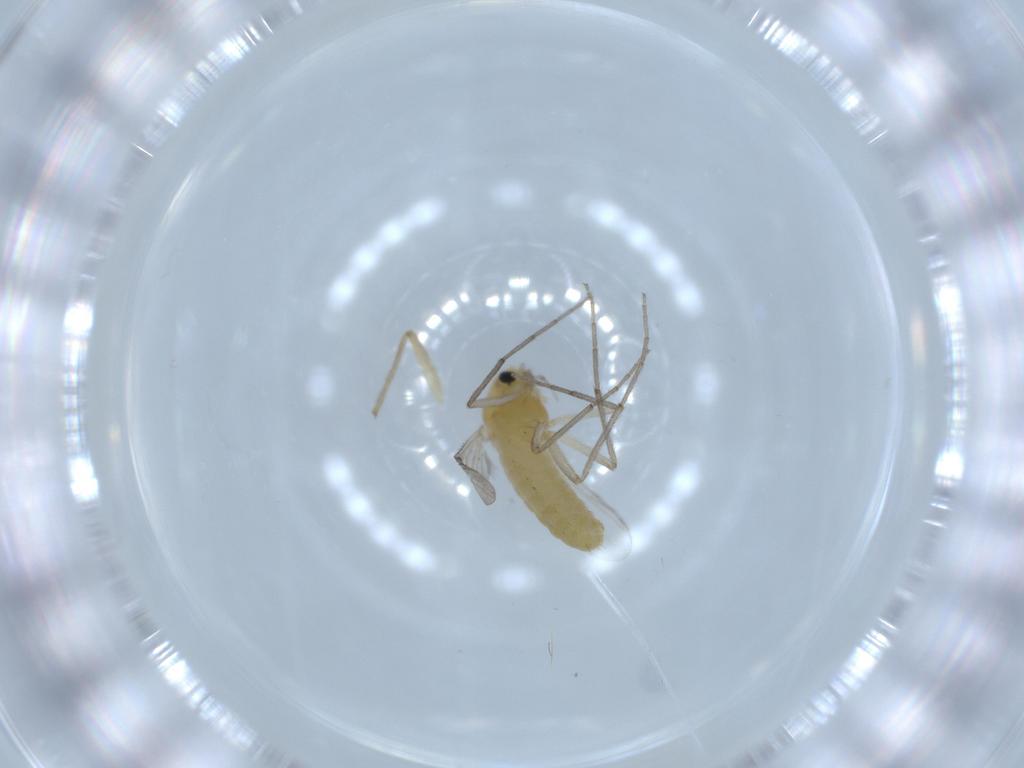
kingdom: Animalia
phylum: Arthropoda
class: Insecta
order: Diptera
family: Chironomidae
